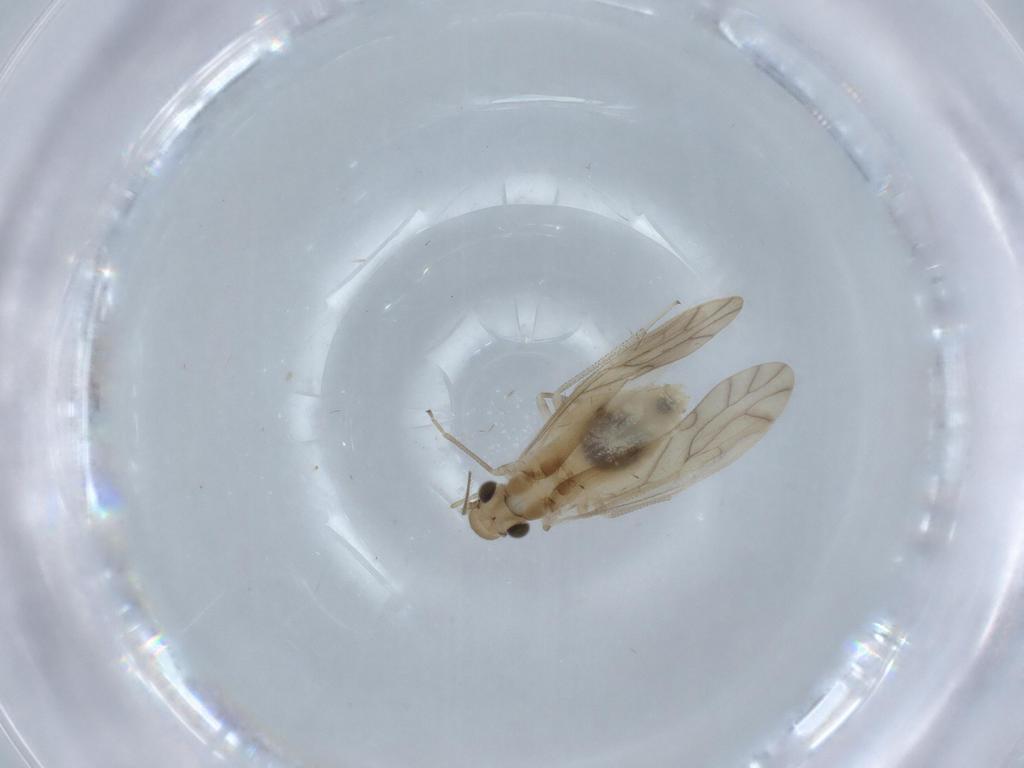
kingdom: Animalia
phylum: Arthropoda
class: Insecta
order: Psocodea
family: Caeciliusidae
